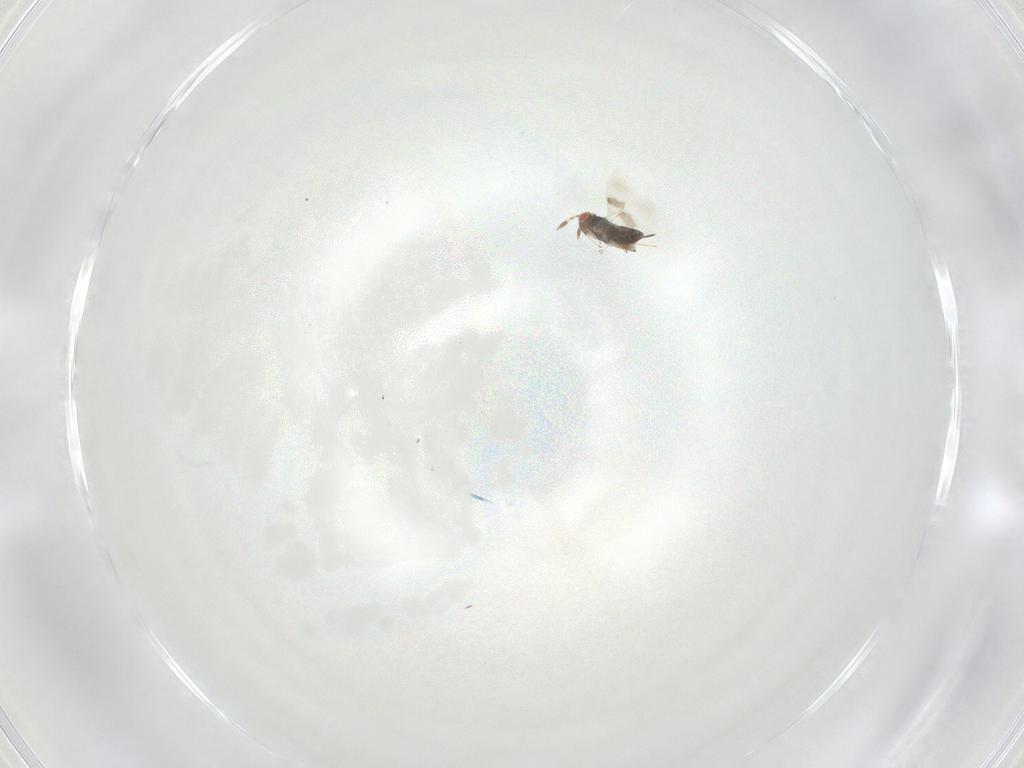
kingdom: Animalia
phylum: Arthropoda
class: Insecta
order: Hymenoptera
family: Azotidae
